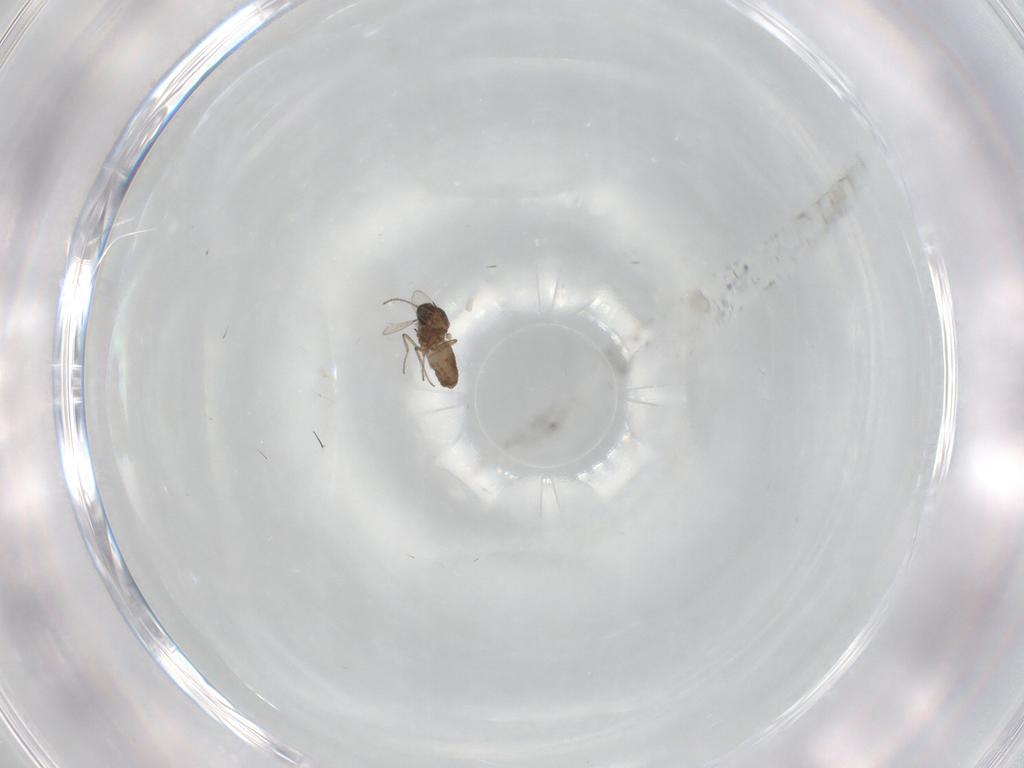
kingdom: Animalia
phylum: Arthropoda
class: Insecta
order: Diptera
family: Ceratopogonidae
